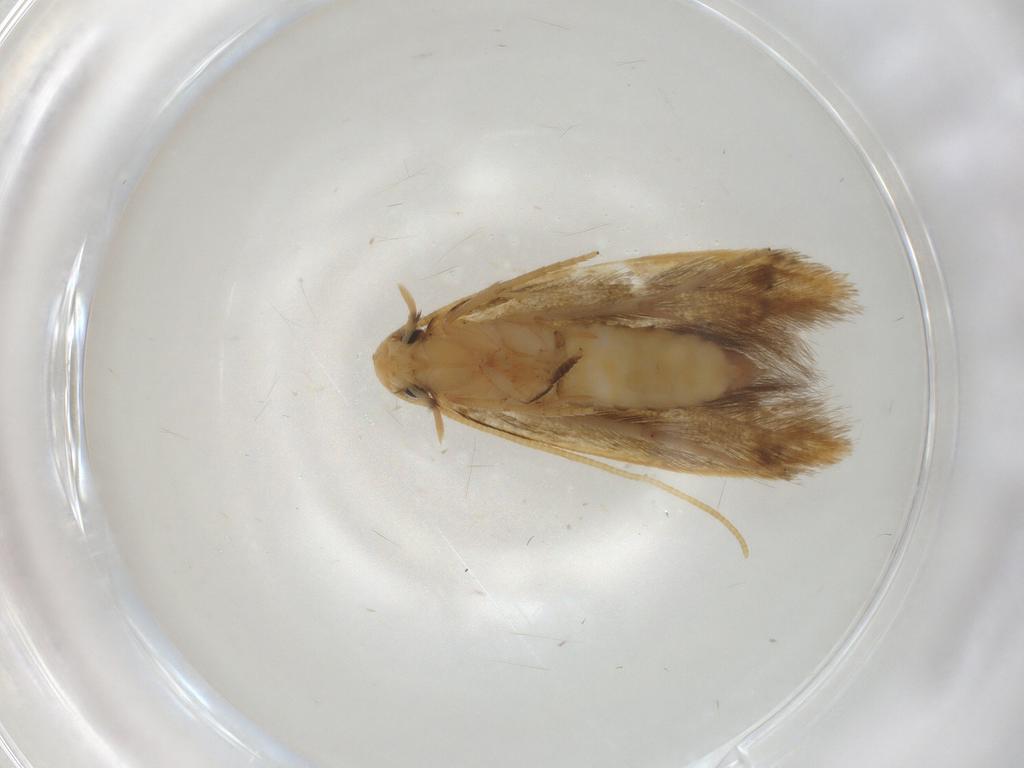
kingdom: Animalia
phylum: Arthropoda
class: Insecta
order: Lepidoptera
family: Tineidae
